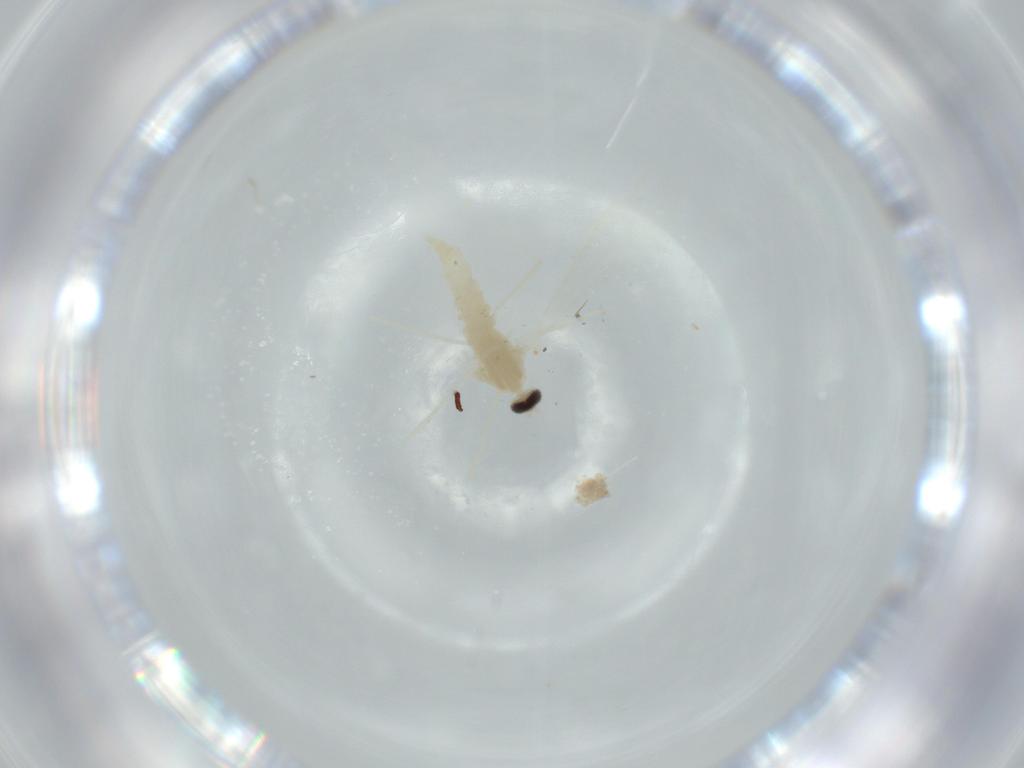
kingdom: Animalia
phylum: Arthropoda
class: Insecta
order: Diptera
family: Cecidomyiidae
